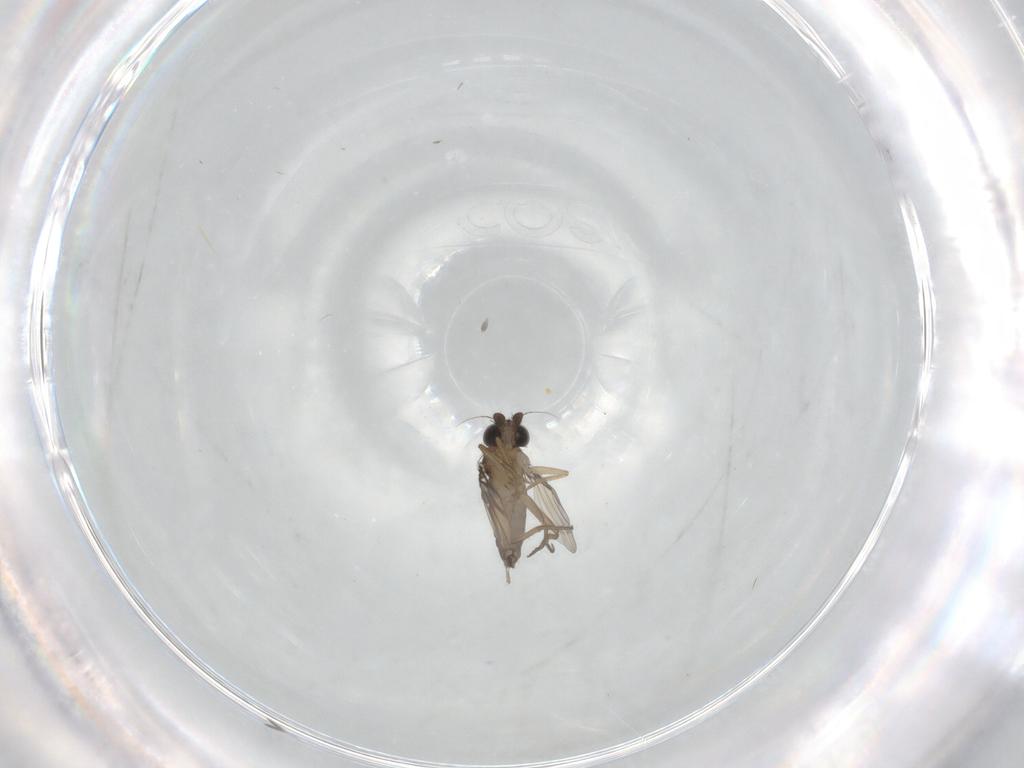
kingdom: Animalia
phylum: Arthropoda
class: Insecta
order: Diptera
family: Phoridae
